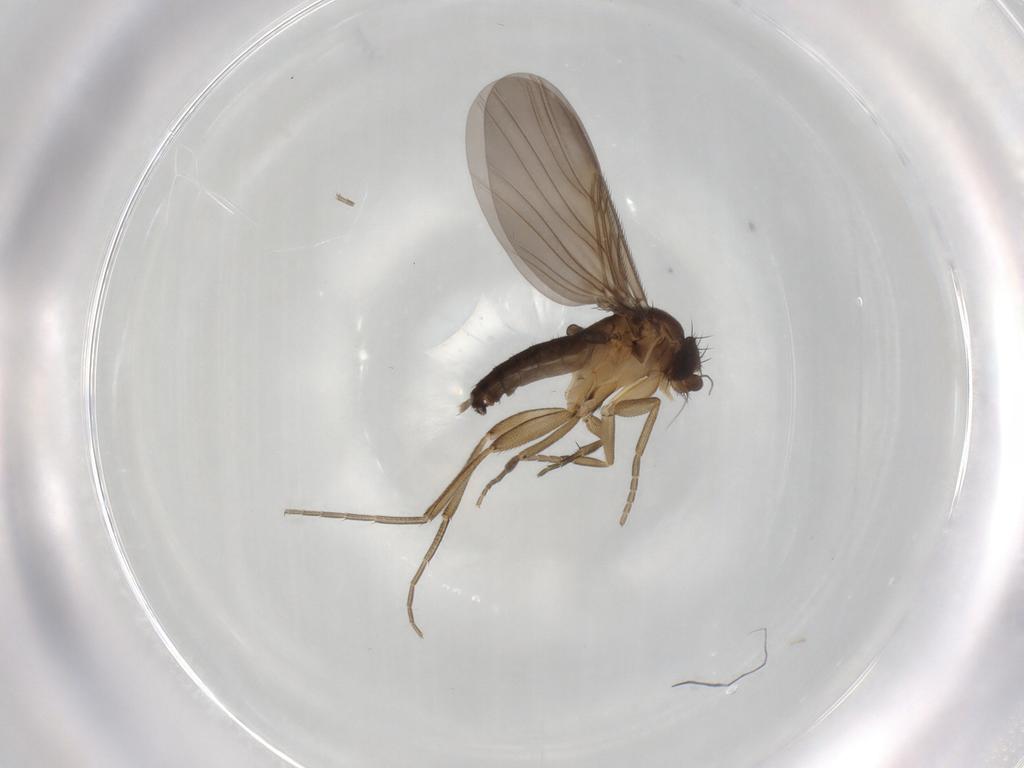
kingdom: Animalia
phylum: Arthropoda
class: Insecta
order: Diptera
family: Phoridae
